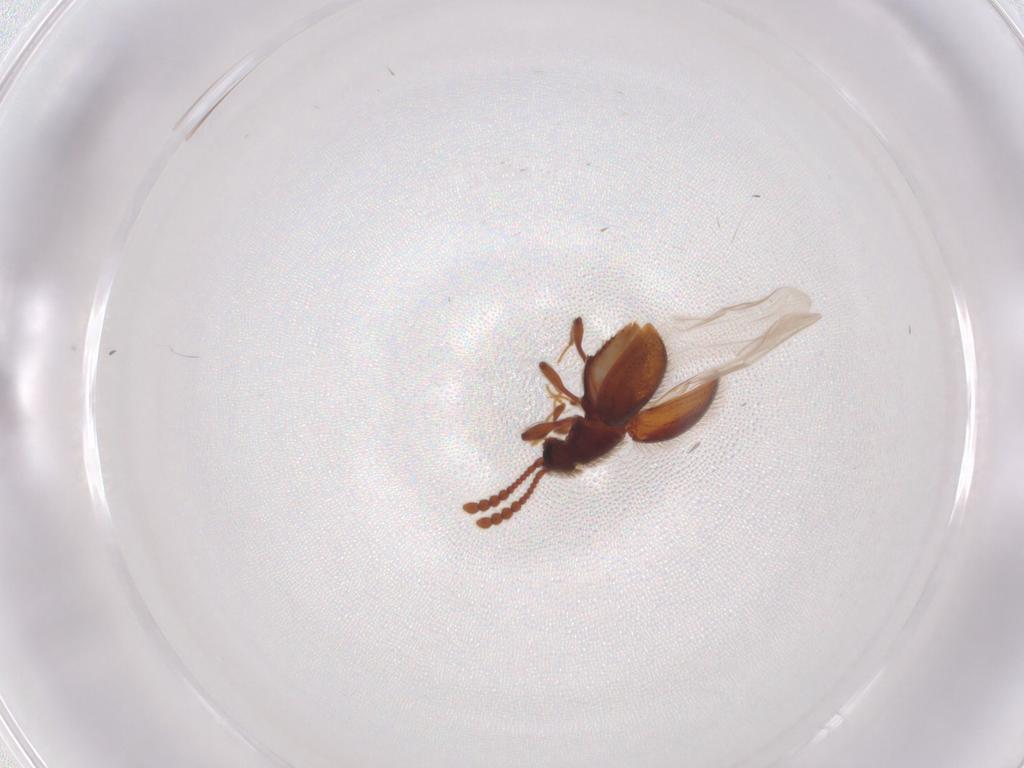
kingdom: Animalia
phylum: Arthropoda
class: Insecta
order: Coleoptera
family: Staphylinidae
